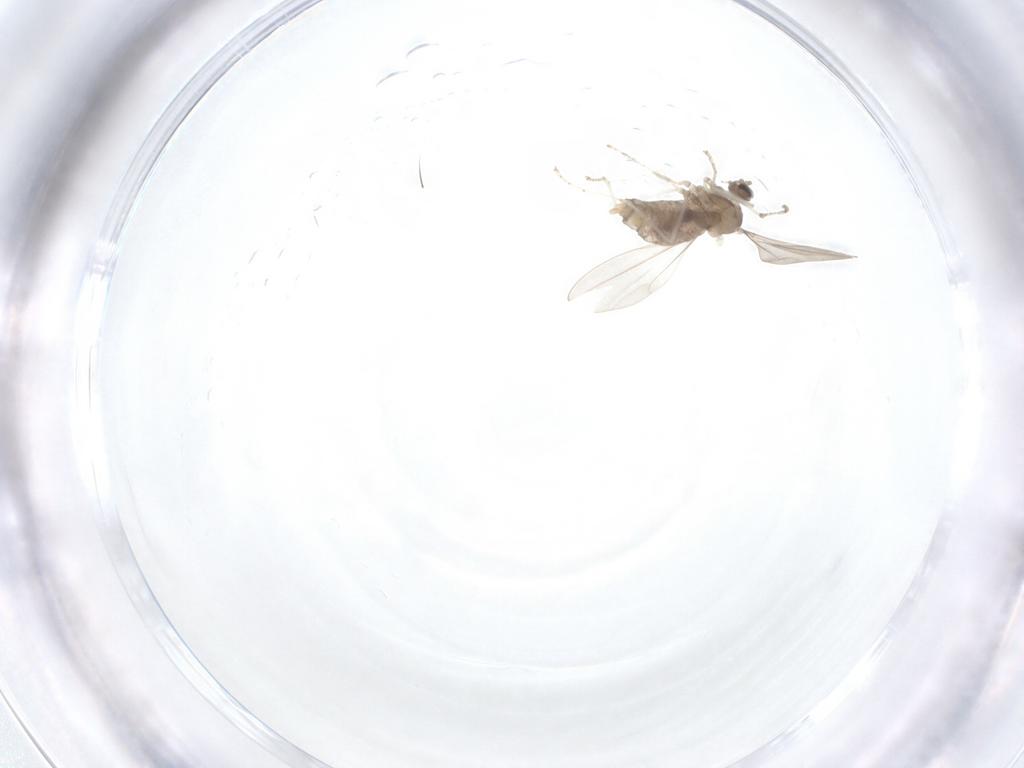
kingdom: Animalia
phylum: Arthropoda
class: Insecta
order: Diptera
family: Cecidomyiidae
